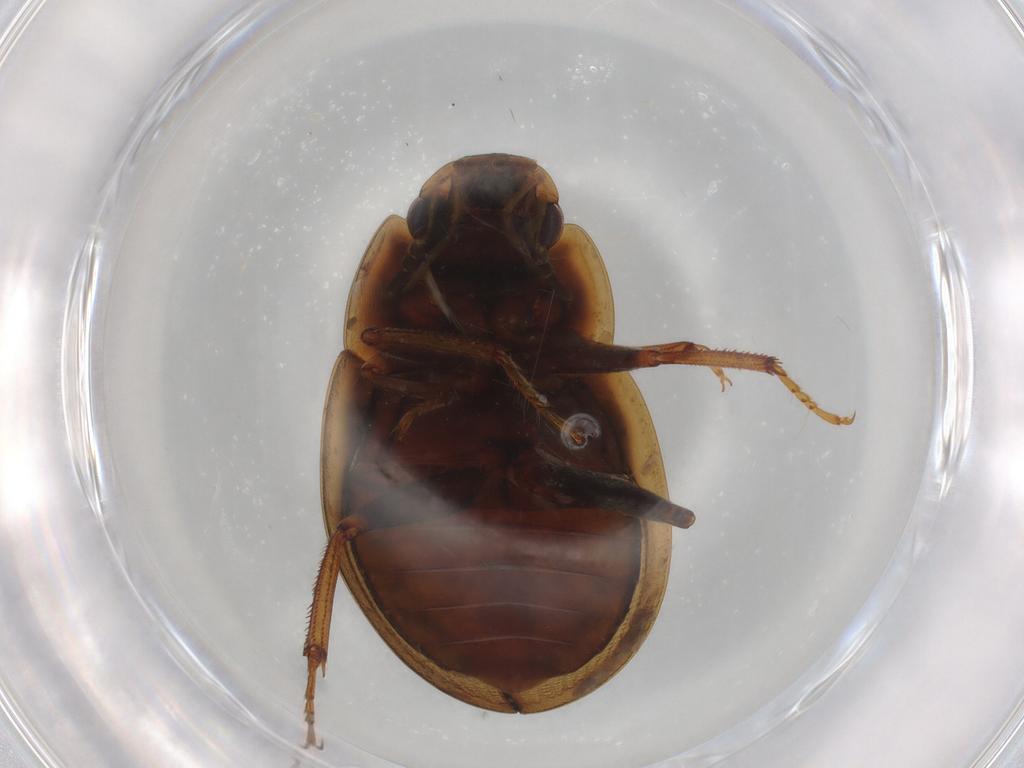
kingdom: Animalia
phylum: Arthropoda
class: Insecta
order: Coleoptera
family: Hydrophilidae
